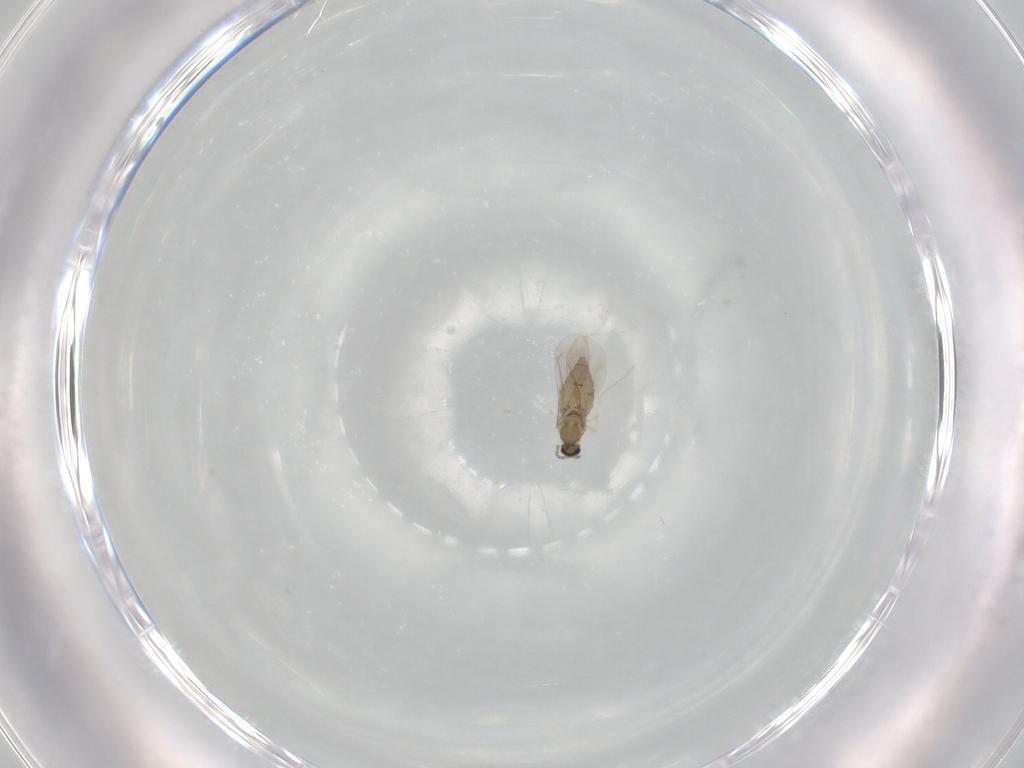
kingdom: Animalia
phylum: Arthropoda
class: Insecta
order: Diptera
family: Cecidomyiidae
